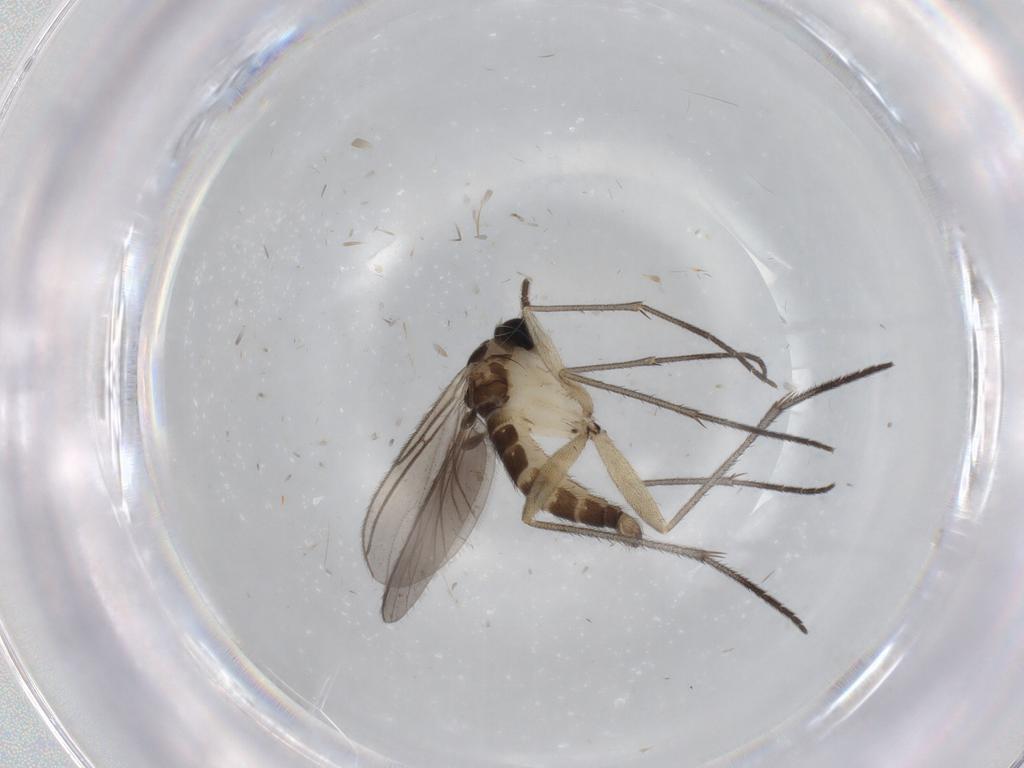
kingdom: Animalia
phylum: Arthropoda
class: Insecta
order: Diptera
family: Sciaridae
